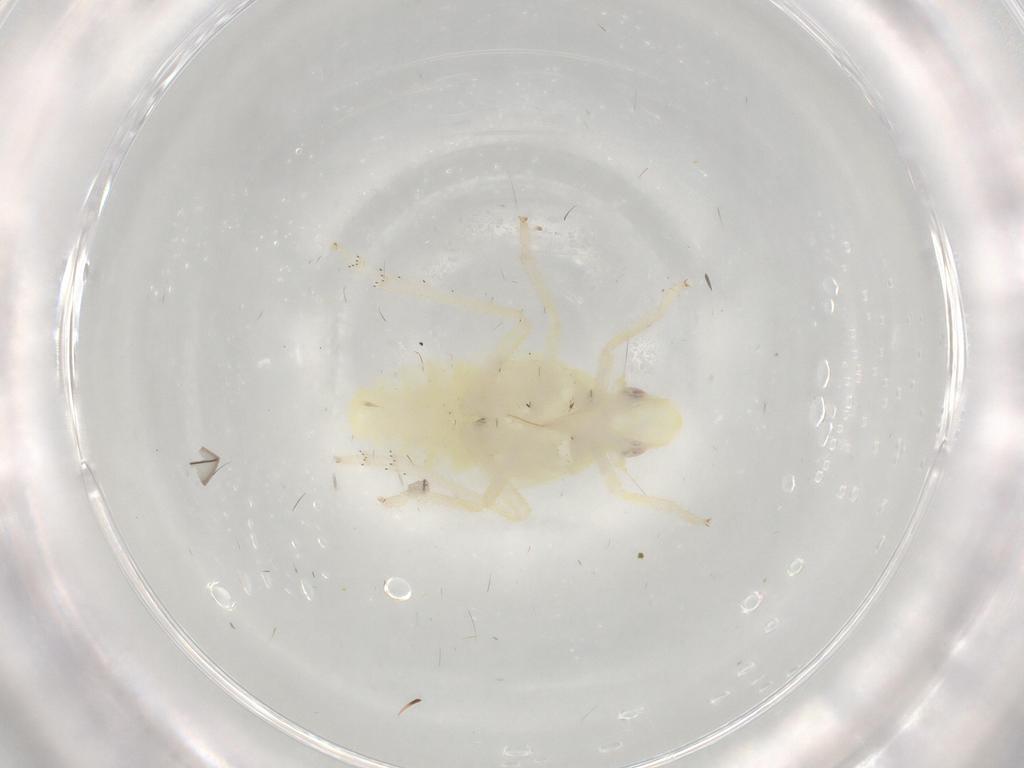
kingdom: Animalia
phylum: Arthropoda
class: Insecta
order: Hemiptera
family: Tropiduchidae
